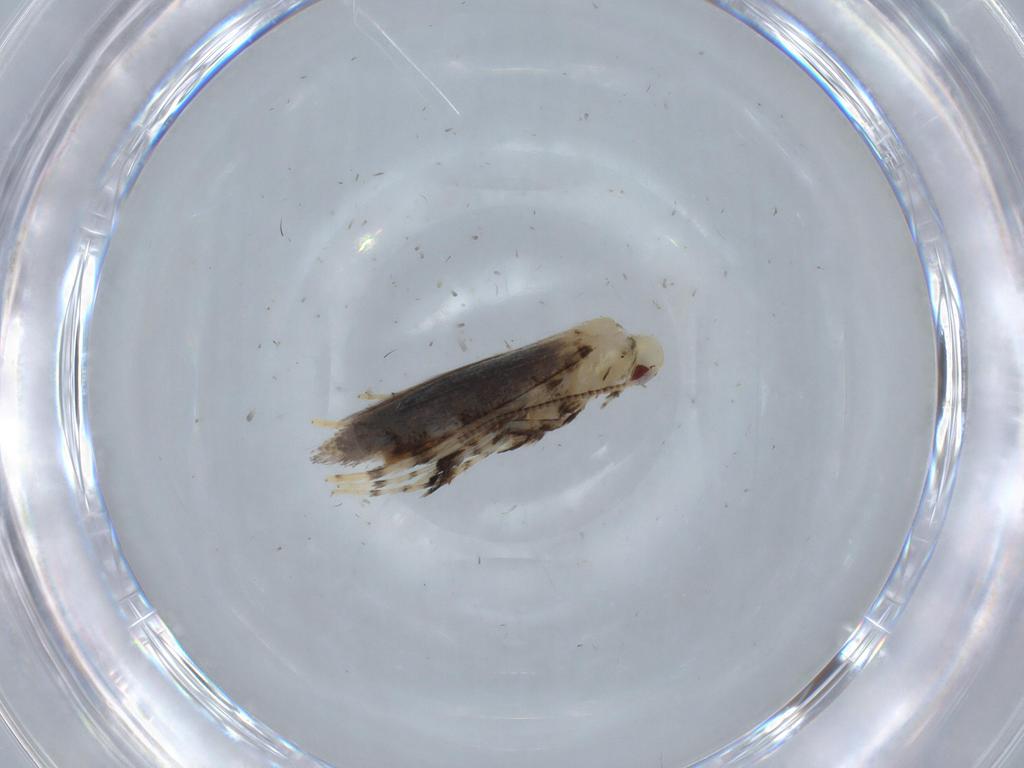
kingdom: Animalia
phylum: Arthropoda
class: Insecta
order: Lepidoptera
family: Gracillariidae
